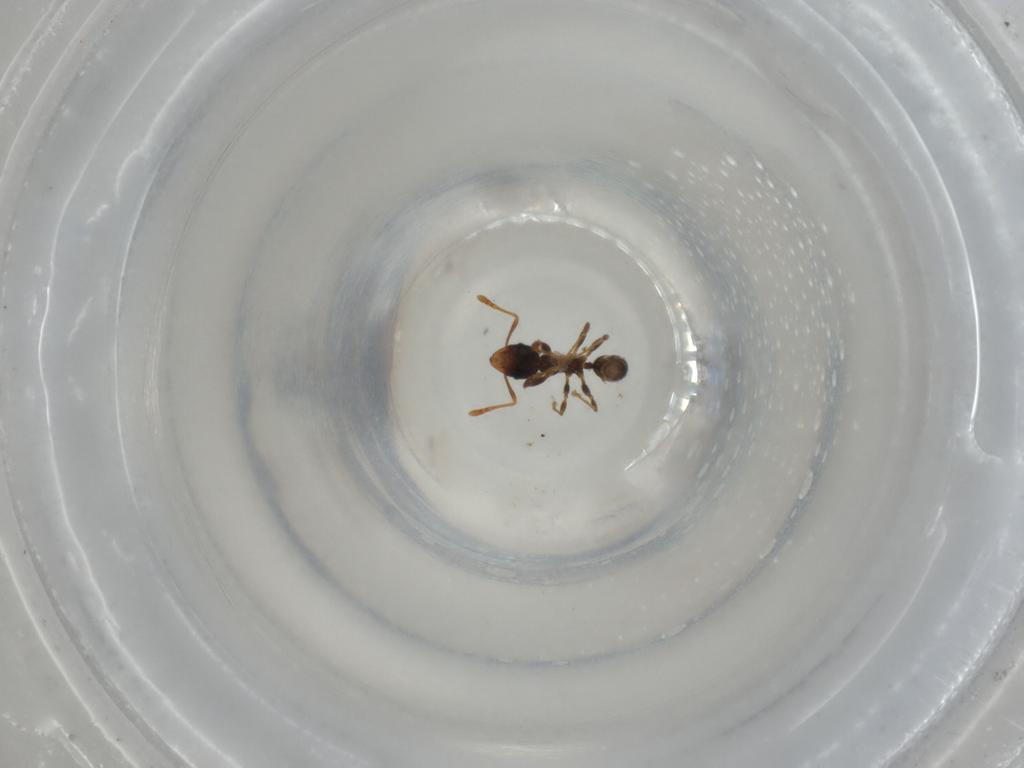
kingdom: Animalia
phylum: Arthropoda
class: Insecta
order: Hymenoptera
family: Formicidae
